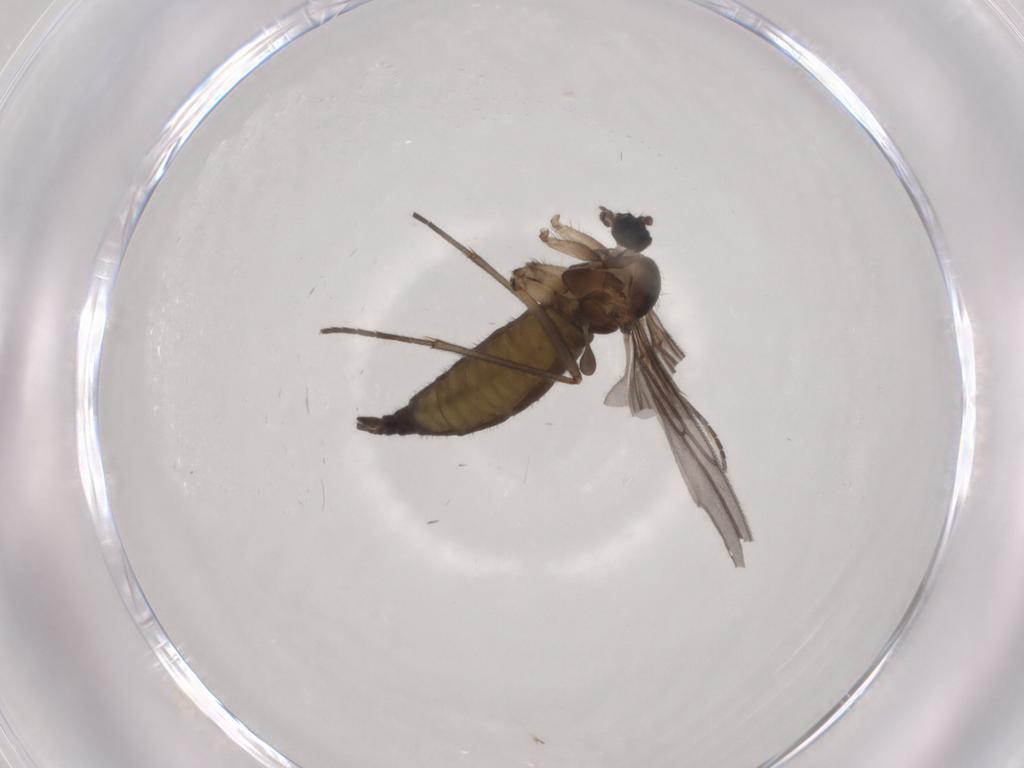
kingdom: Animalia
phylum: Arthropoda
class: Insecta
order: Diptera
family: Sciaridae
